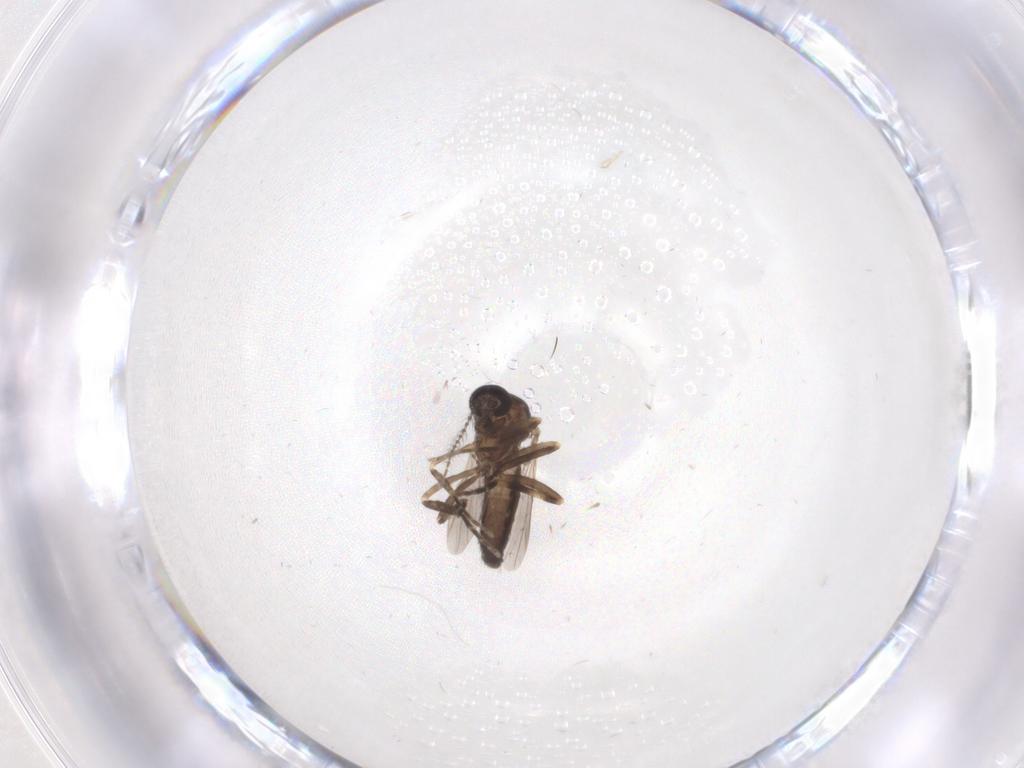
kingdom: Animalia
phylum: Arthropoda
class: Insecta
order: Diptera
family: Ceratopogonidae
